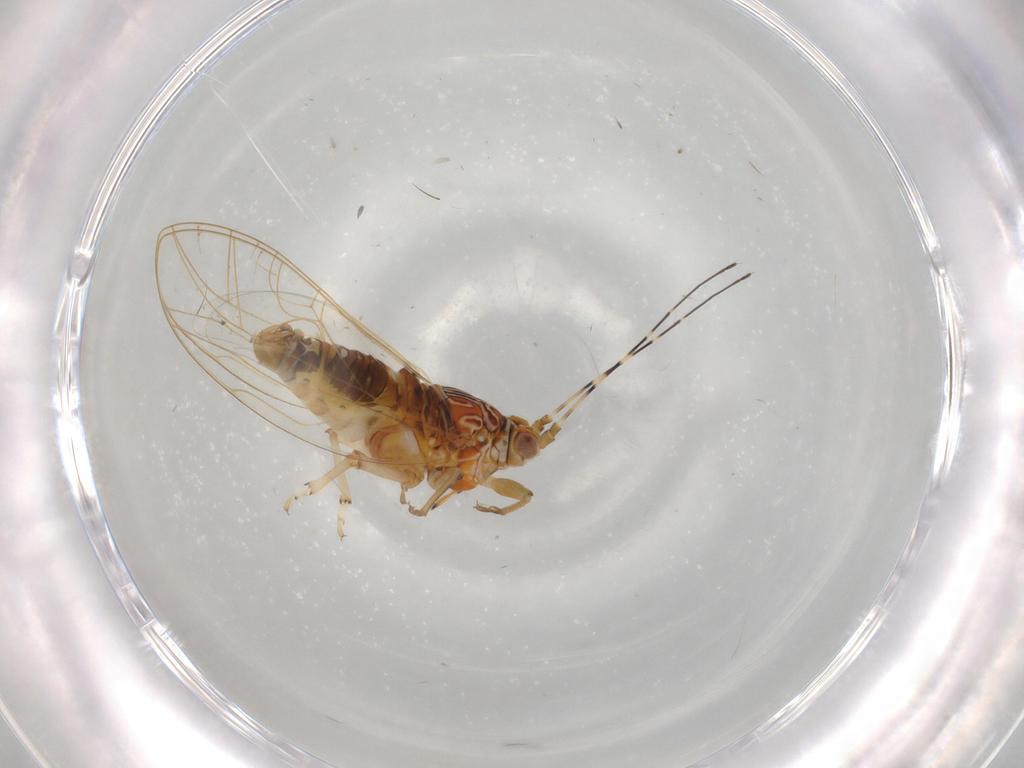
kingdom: Animalia
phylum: Arthropoda
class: Insecta
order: Hemiptera
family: Carsidaridae
